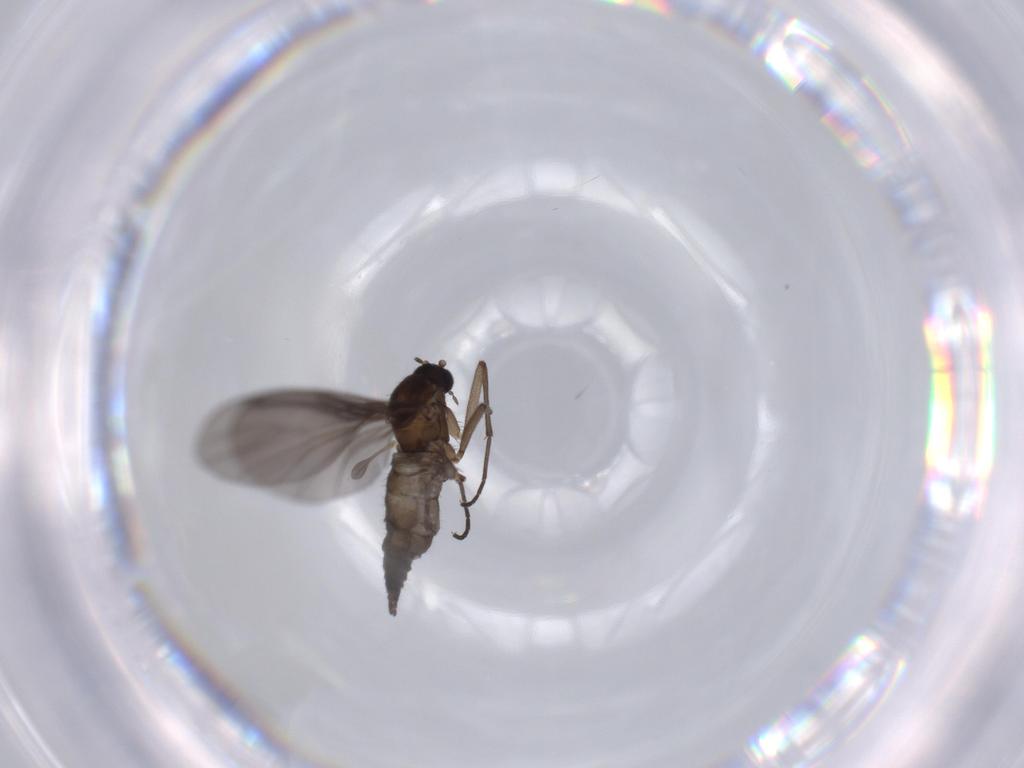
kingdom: Animalia
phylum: Arthropoda
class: Insecta
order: Diptera
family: Sciaridae
